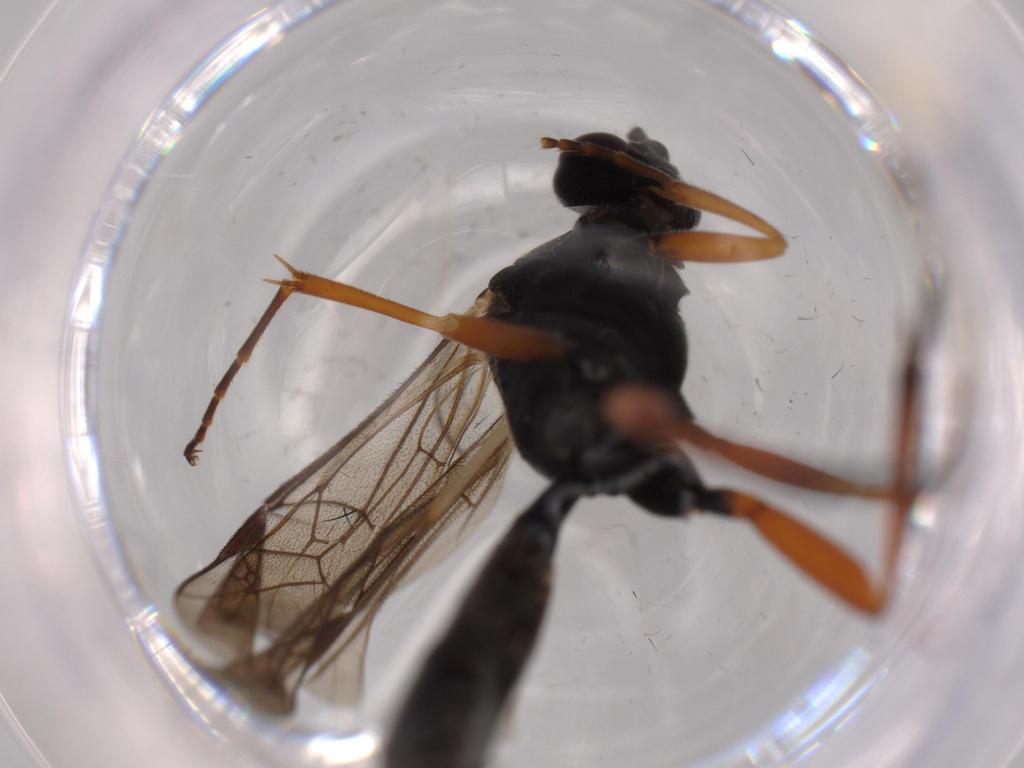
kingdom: Animalia
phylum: Arthropoda
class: Insecta
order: Hymenoptera
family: Ichneumonidae
